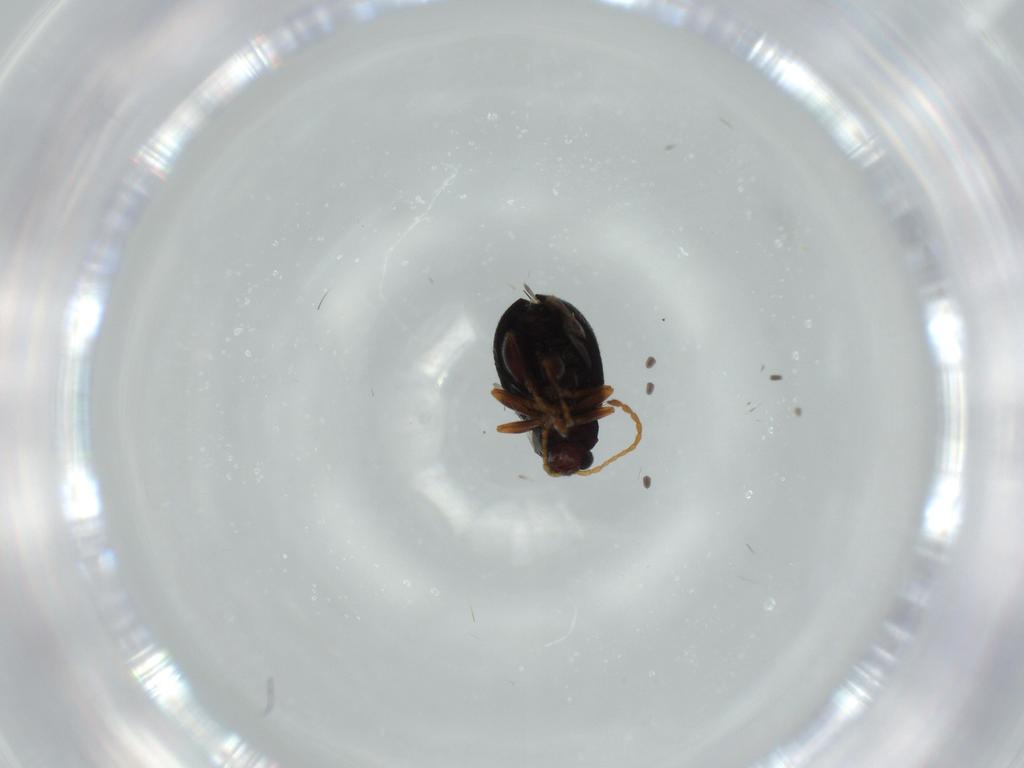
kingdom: Animalia
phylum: Arthropoda
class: Insecta
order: Coleoptera
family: Chrysomelidae
